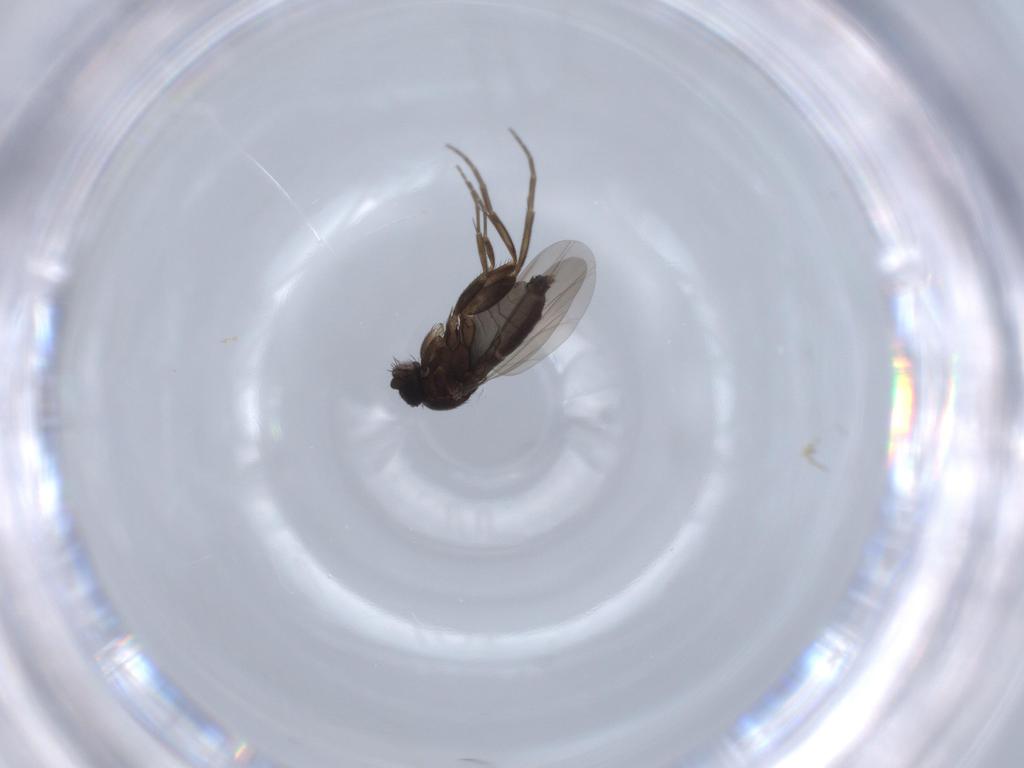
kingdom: Animalia
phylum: Arthropoda
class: Insecta
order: Diptera
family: Phoridae
